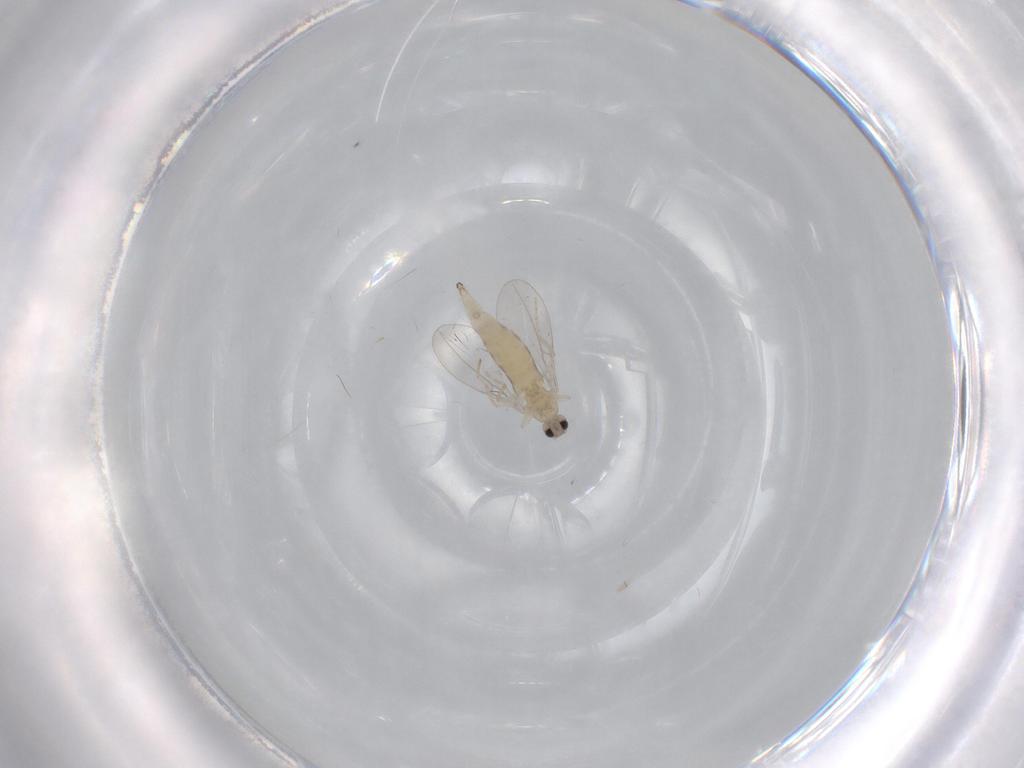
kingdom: Animalia
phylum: Arthropoda
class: Insecta
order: Diptera
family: Cecidomyiidae
